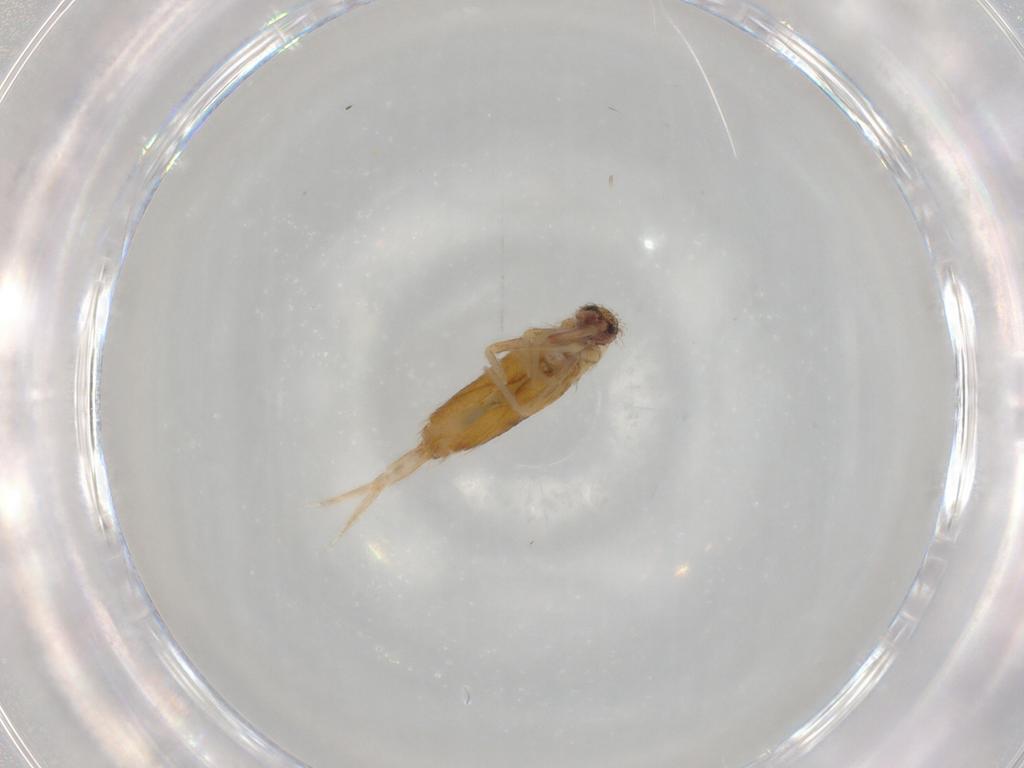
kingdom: Animalia
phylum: Arthropoda
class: Collembola
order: Entomobryomorpha
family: Entomobryidae
